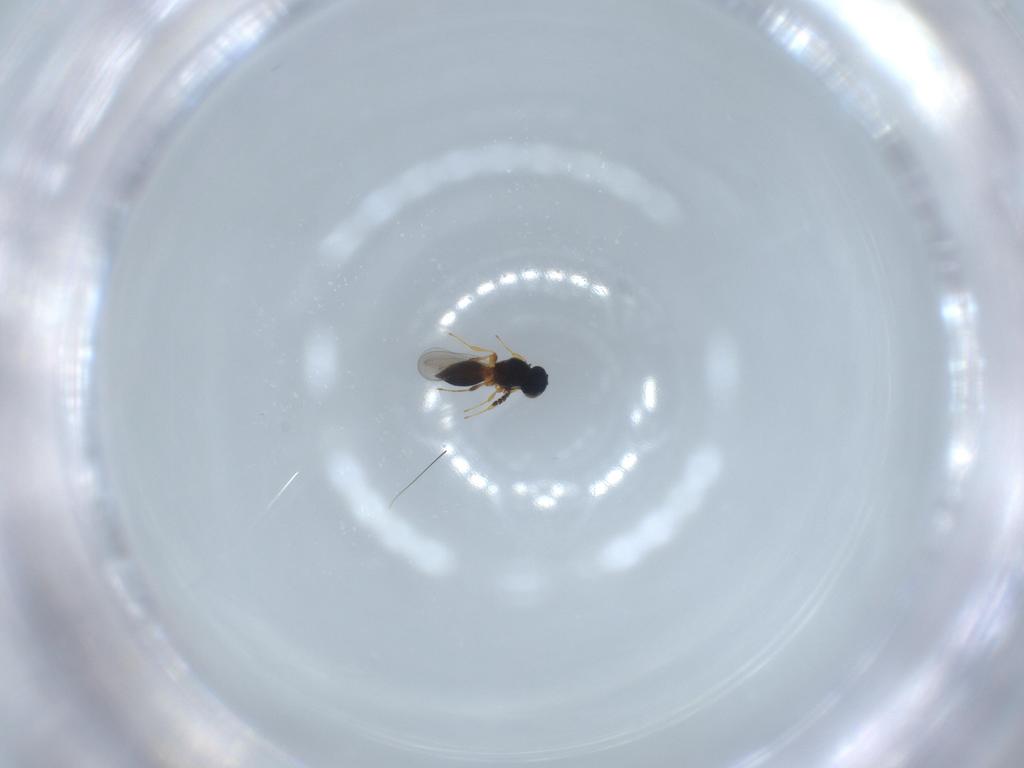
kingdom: Animalia
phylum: Arthropoda
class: Insecta
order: Hymenoptera
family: Platygastridae
